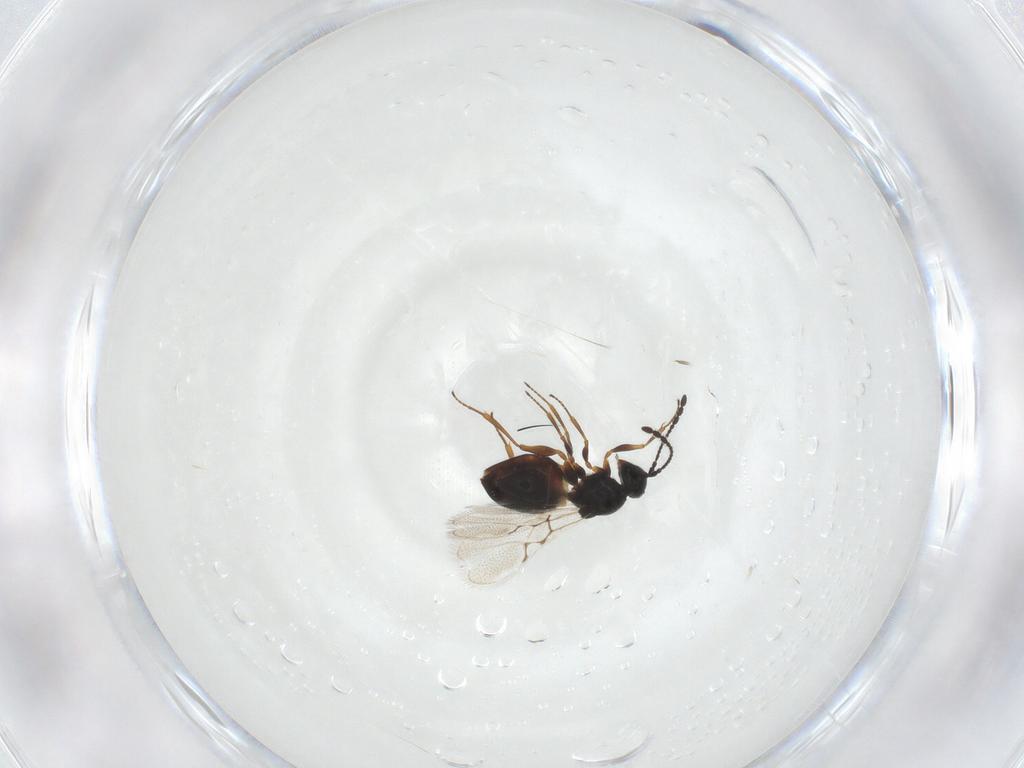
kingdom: Animalia
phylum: Arthropoda
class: Insecta
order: Hymenoptera
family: Figitidae
